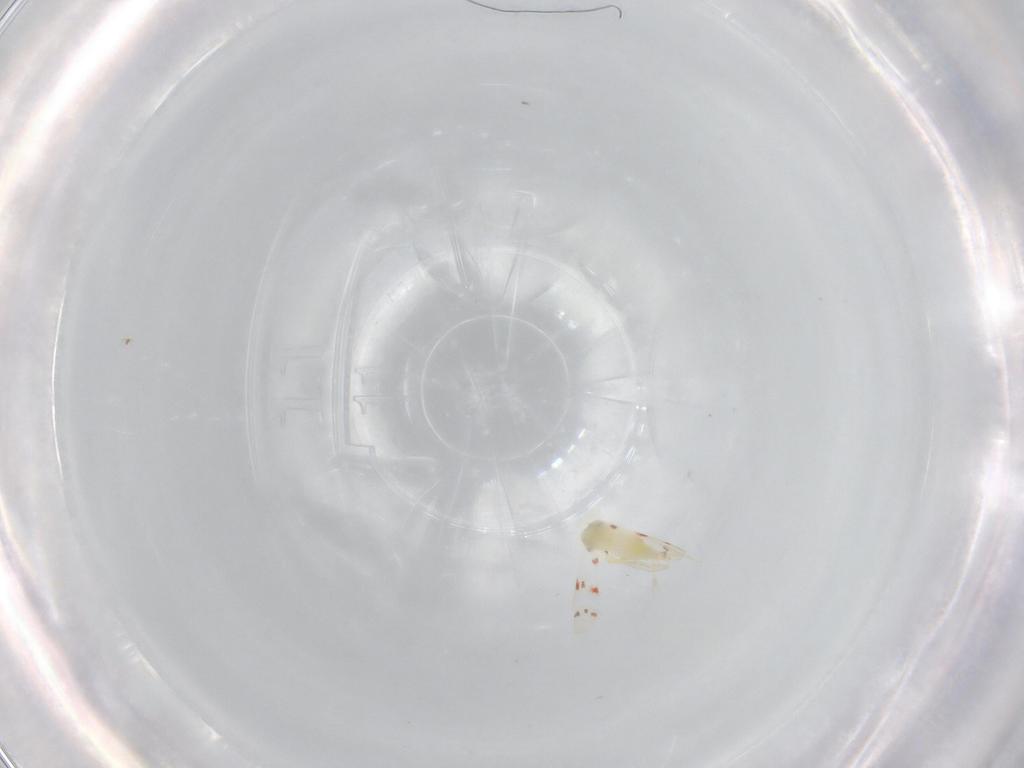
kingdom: Animalia
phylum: Arthropoda
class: Insecta
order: Hemiptera
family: Aleyrodidae
